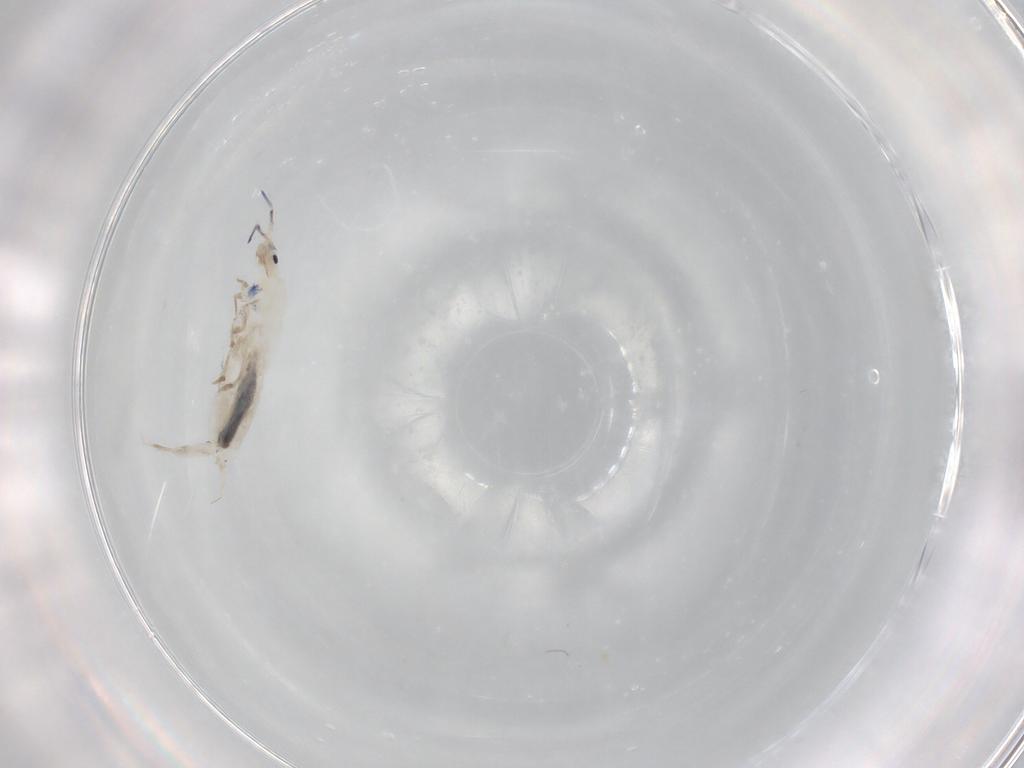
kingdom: Animalia
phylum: Arthropoda
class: Collembola
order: Entomobryomorpha
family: Entomobryidae
